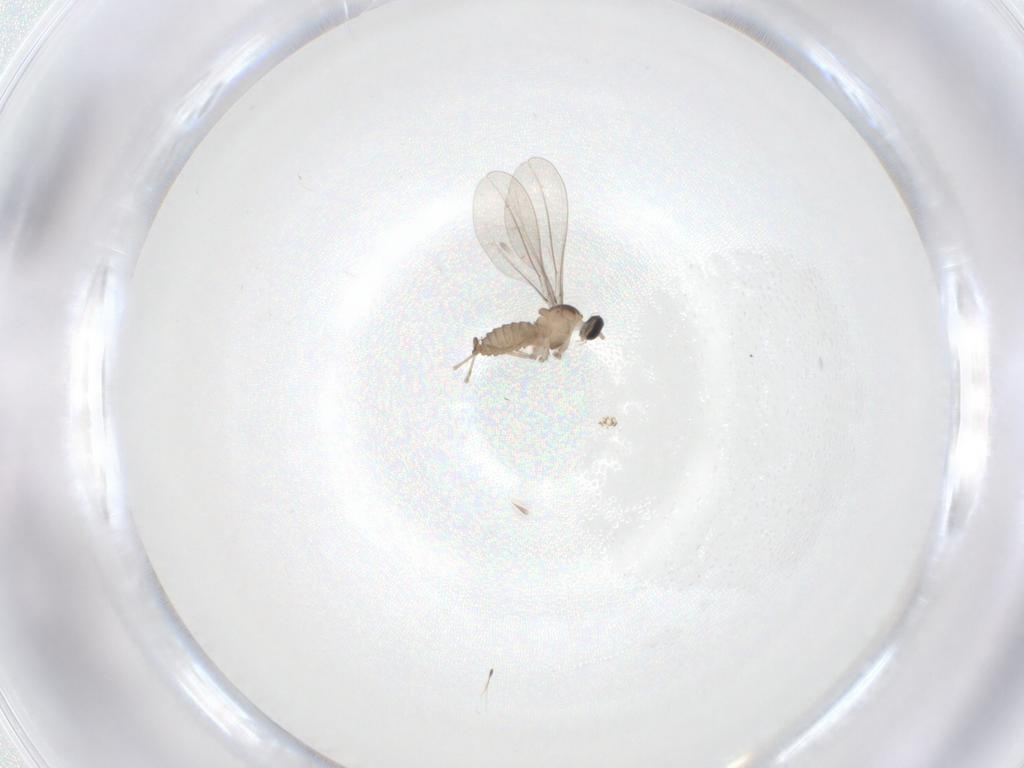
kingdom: Animalia
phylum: Arthropoda
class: Insecta
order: Diptera
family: Cecidomyiidae
